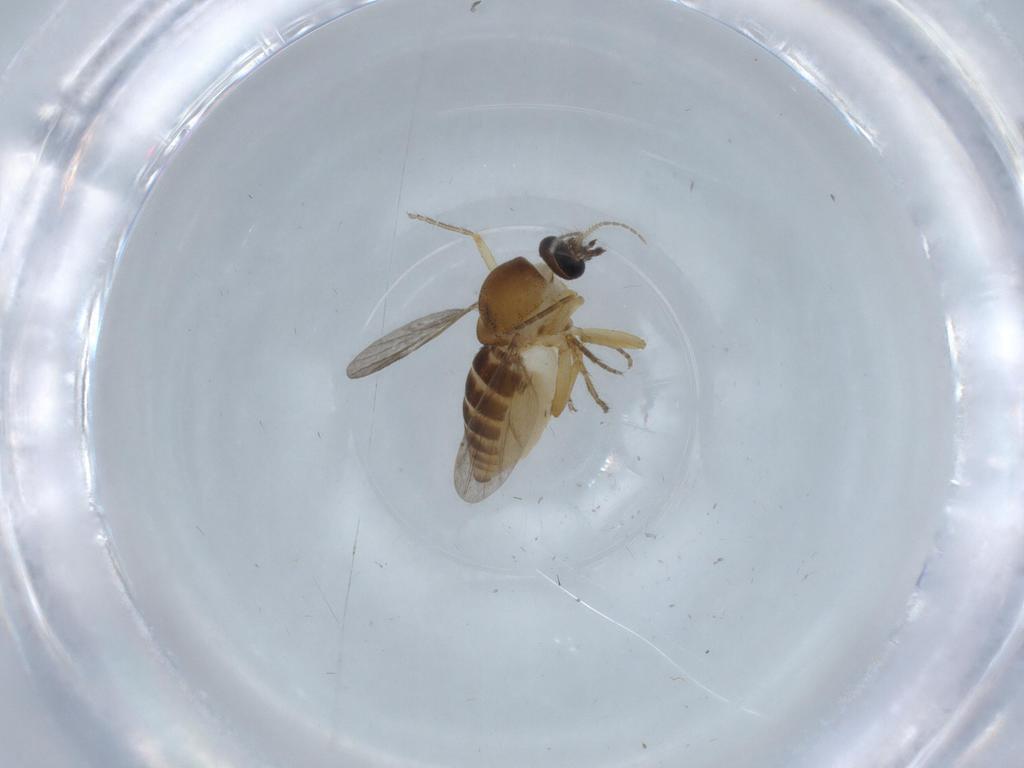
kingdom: Animalia
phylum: Arthropoda
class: Insecta
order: Diptera
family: Ceratopogonidae
